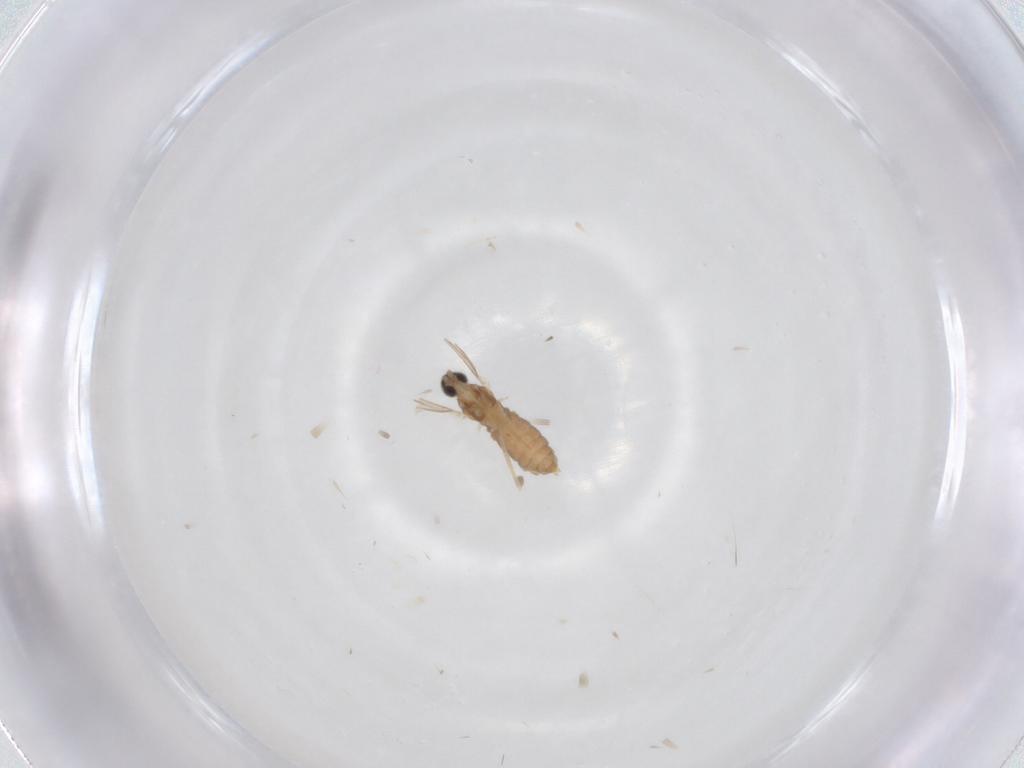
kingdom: Animalia
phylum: Arthropoda
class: Insecta
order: Diptera
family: Cecidomyiidae
